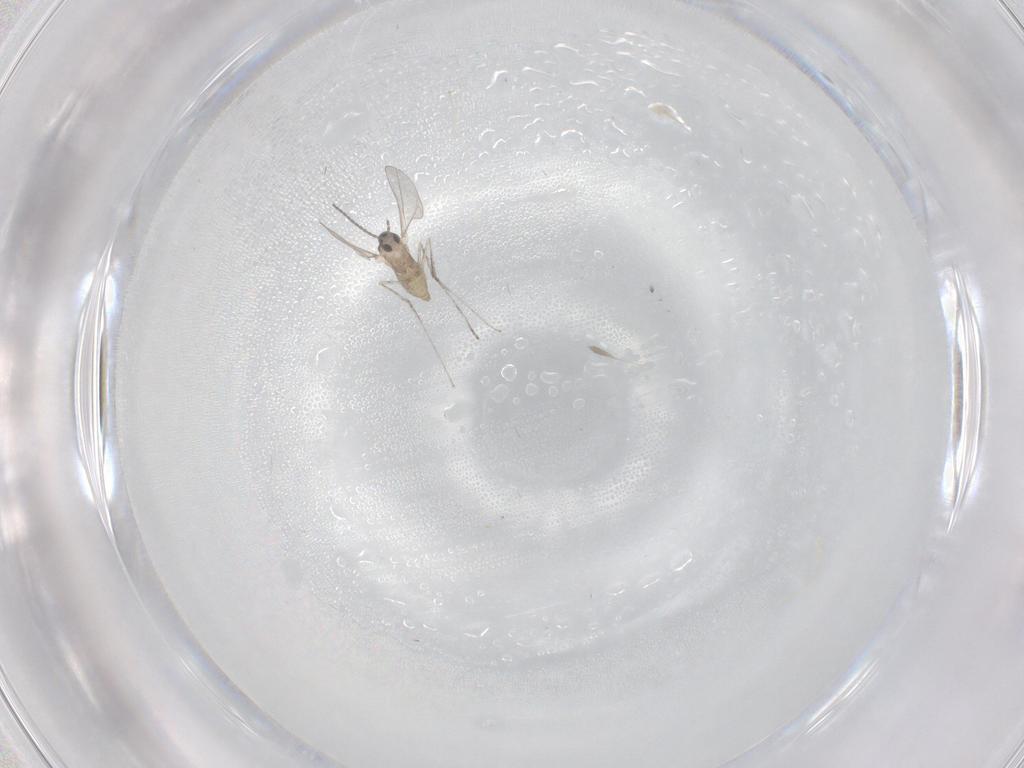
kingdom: Animalia
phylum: Arthropoda
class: Insecta
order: Diptera
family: Cecidomyiidae
